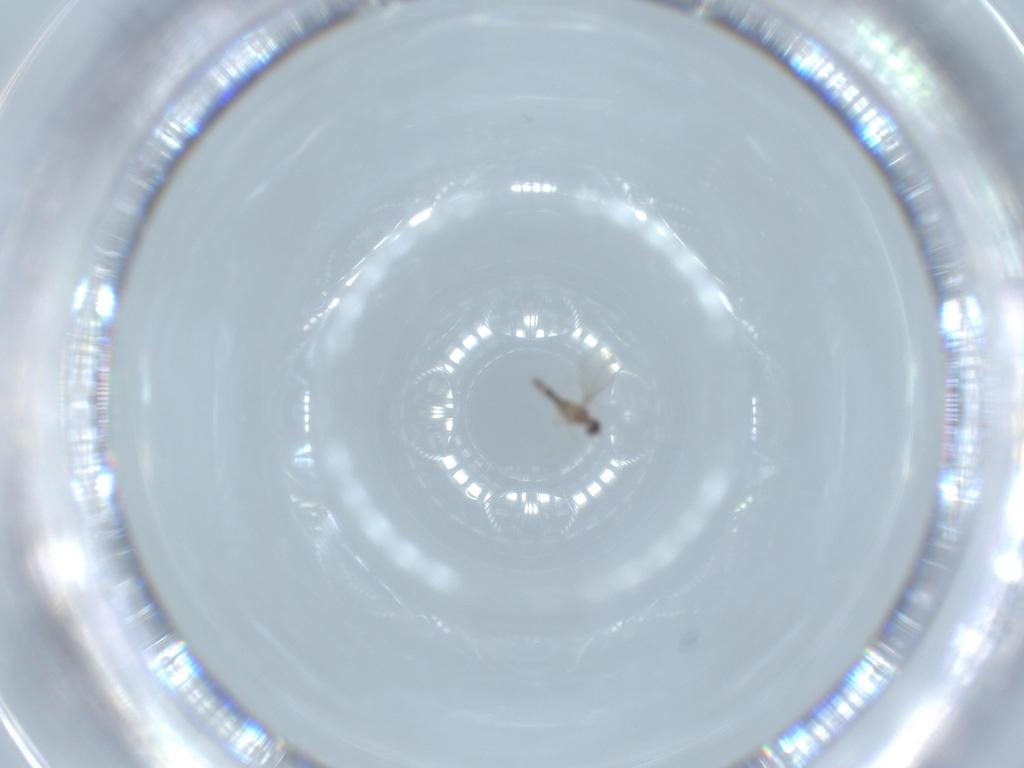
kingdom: Animalia
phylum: Arthropoda
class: Insecta
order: Diptera
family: Cecidomyiidae
